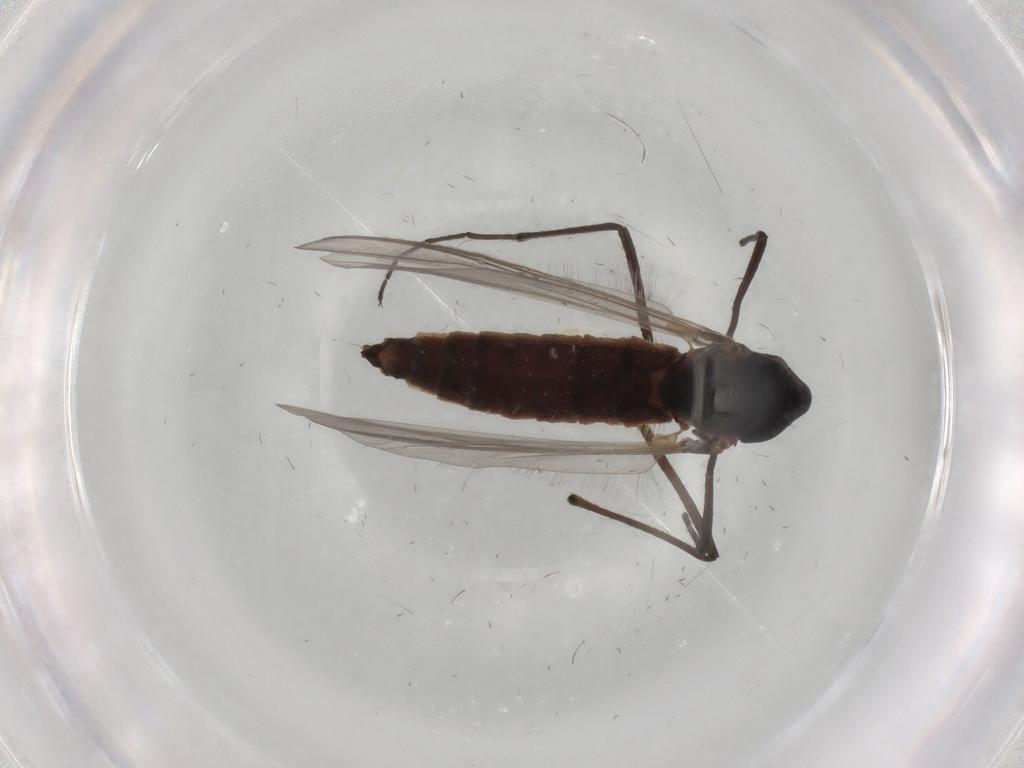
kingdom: Animalia
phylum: Arthropoda
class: Insecta
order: Diptera
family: Chironomidae
